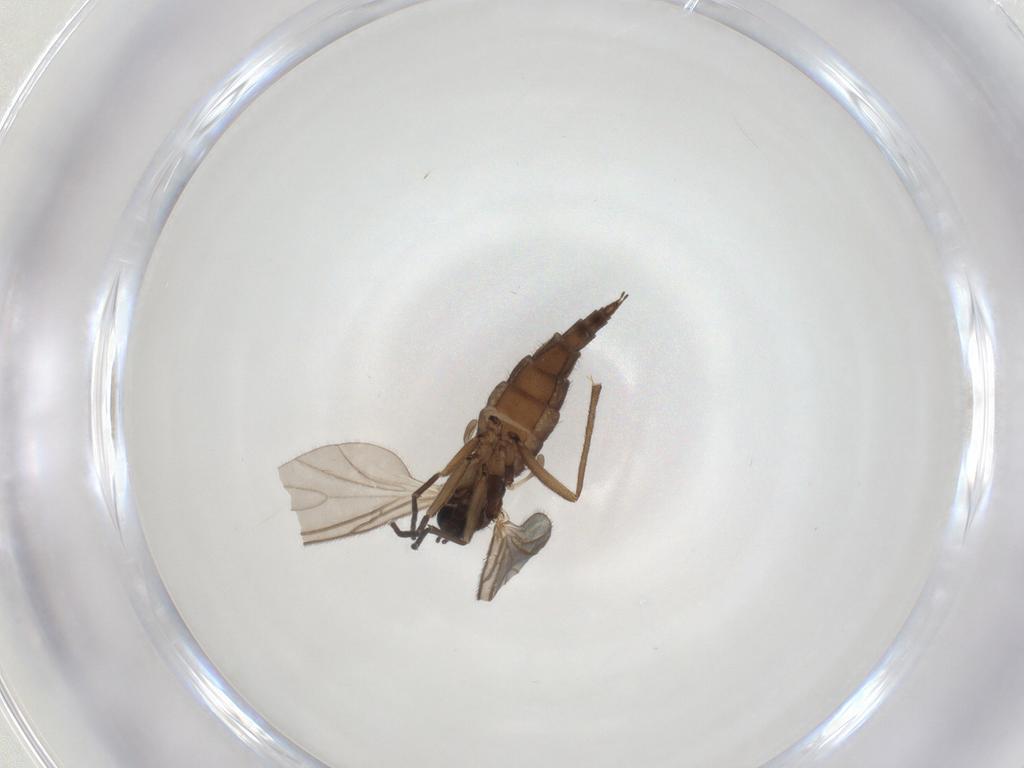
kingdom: Animalia
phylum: Arthropoda
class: Insecta
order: Diptera
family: Sciaridae
